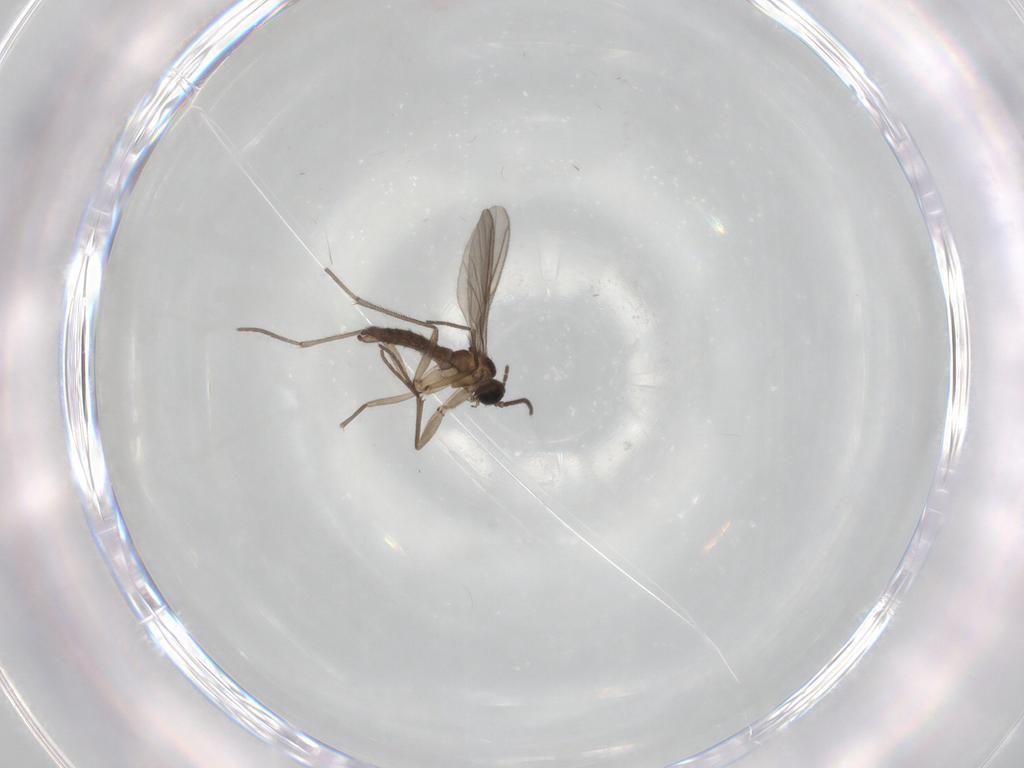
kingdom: Animalia
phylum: Arthropoda
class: Insecta
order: Diptera
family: Sciaridae
